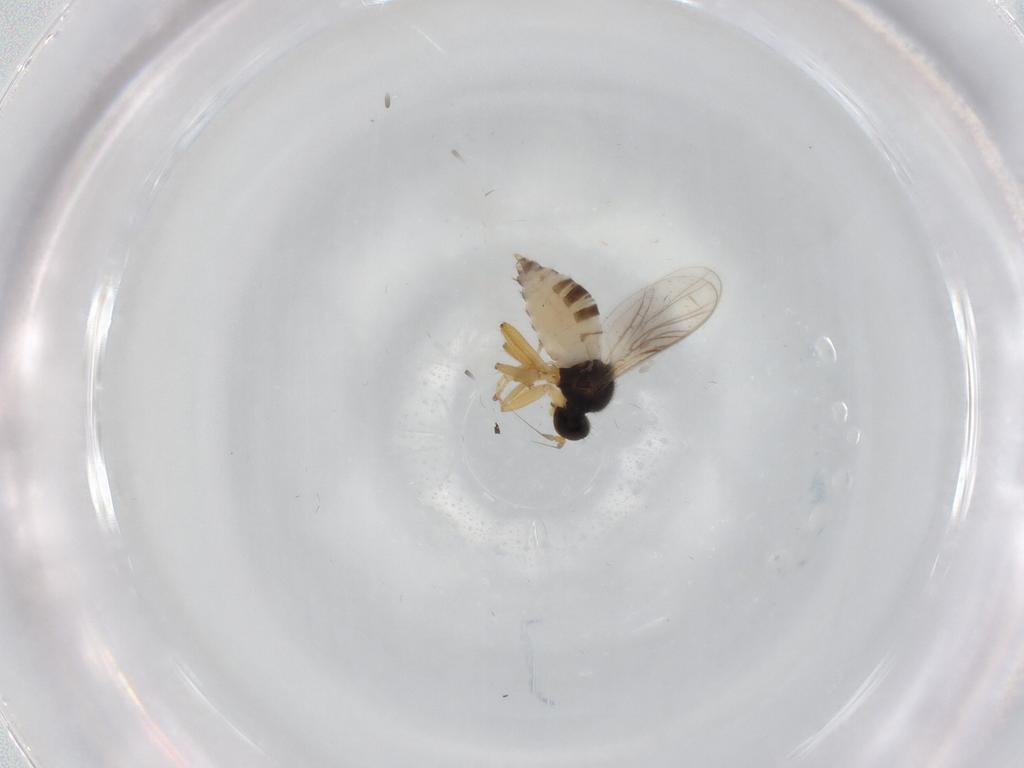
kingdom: Animalia
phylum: Arthropoda
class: Insecta
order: Diptera
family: Hybotidae
